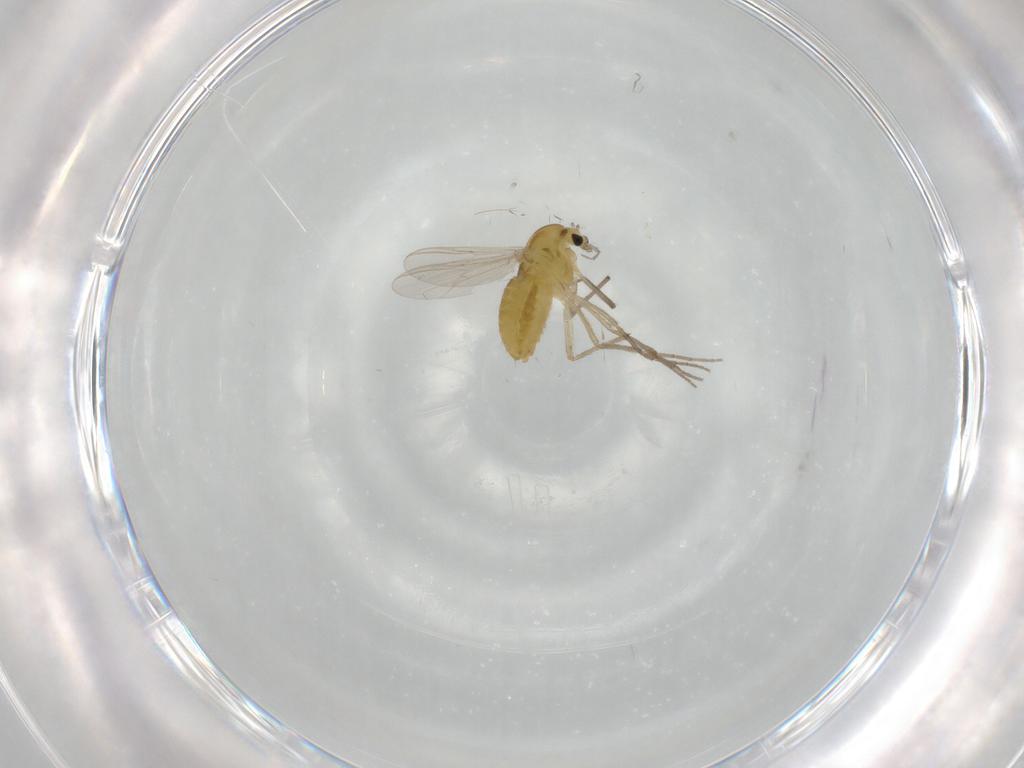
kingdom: Animalia
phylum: Arthropoda
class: Insecta
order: Diptera
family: Chironomidae
